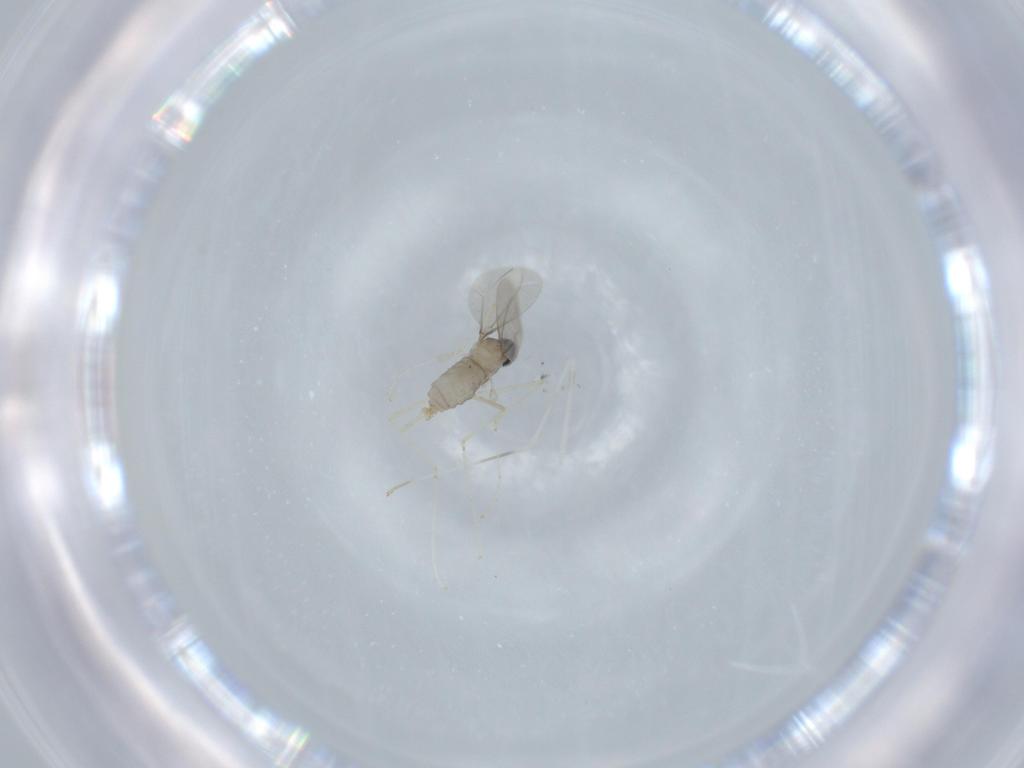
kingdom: Animalia
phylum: Arthropoda
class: Insecta
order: Diptera
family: Cecidomyiidae
